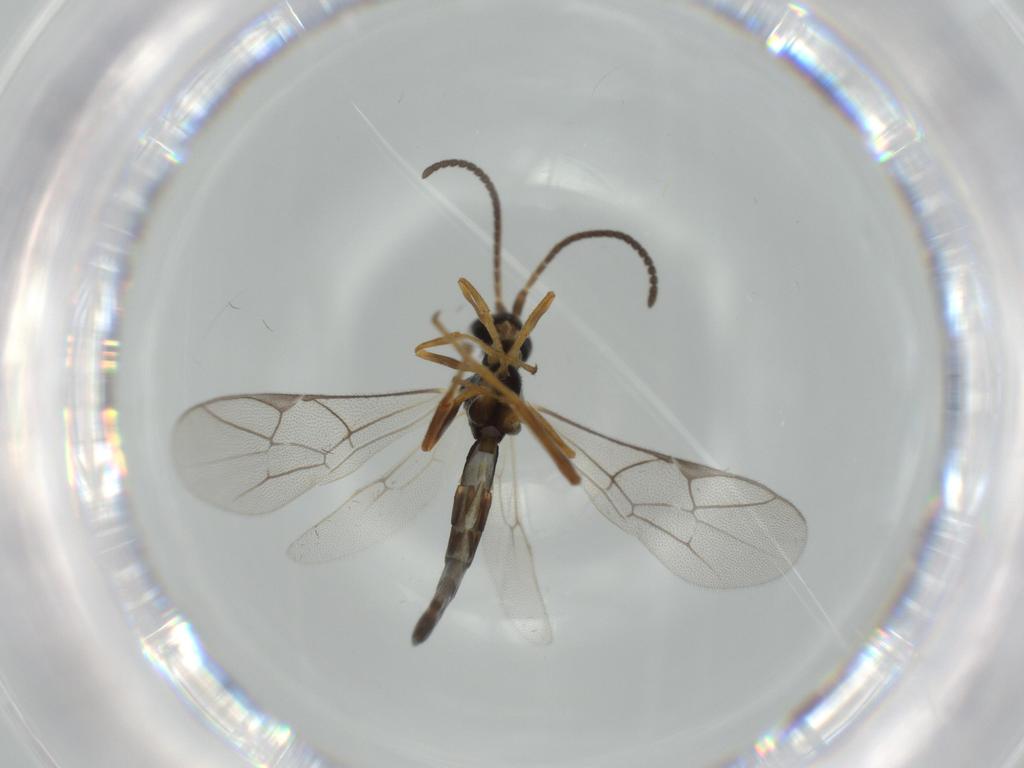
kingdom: Animalia
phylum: Arthropoda
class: Insecta
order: Hymenoptera
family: Ichneumonidae
